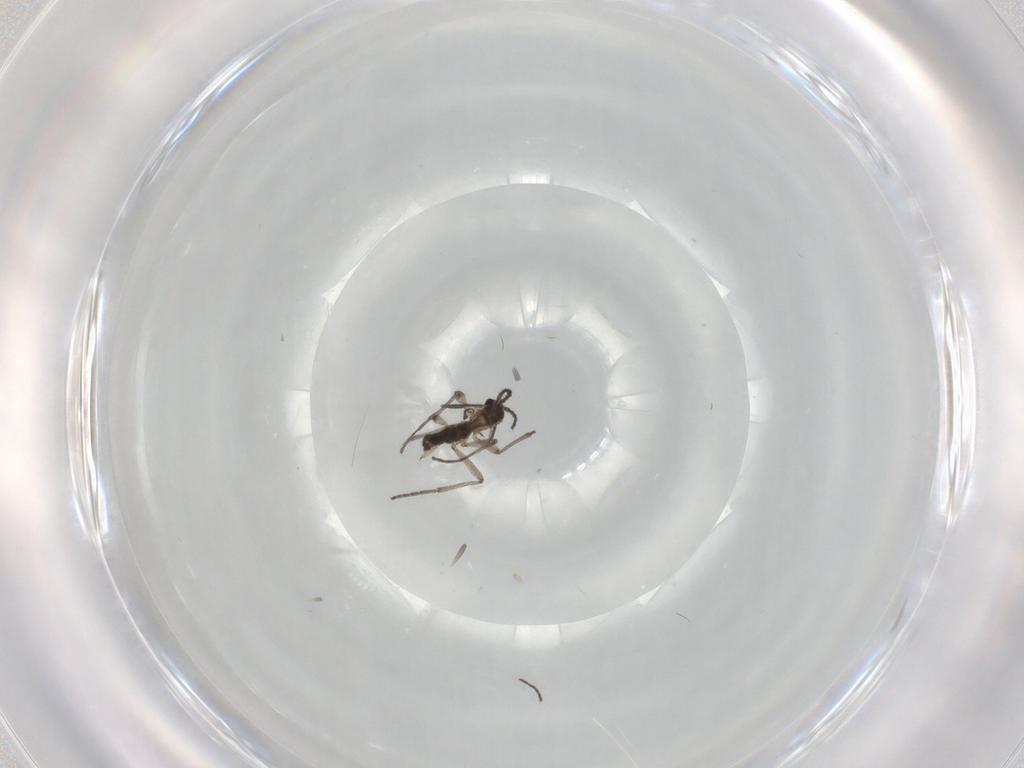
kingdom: Animalia
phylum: Arthropoda
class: Insecta
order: Diptera
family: Sciaridae
